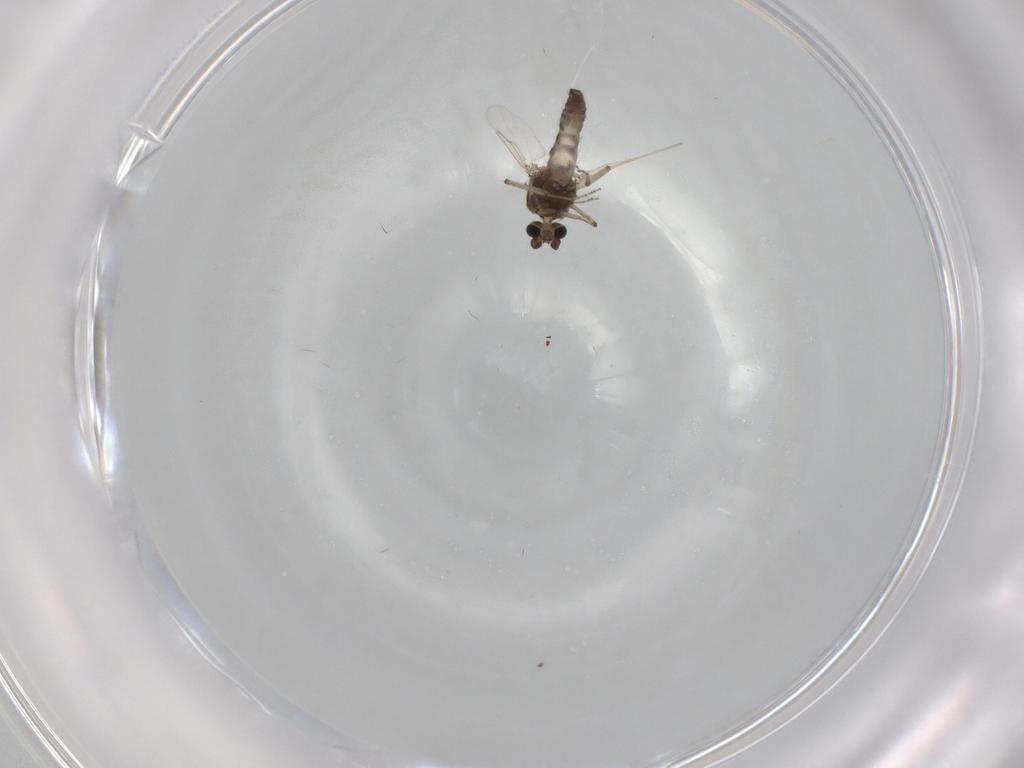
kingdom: Animalia
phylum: Arthropoda
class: Insecta
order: Diptera
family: Ceratopogonidae
